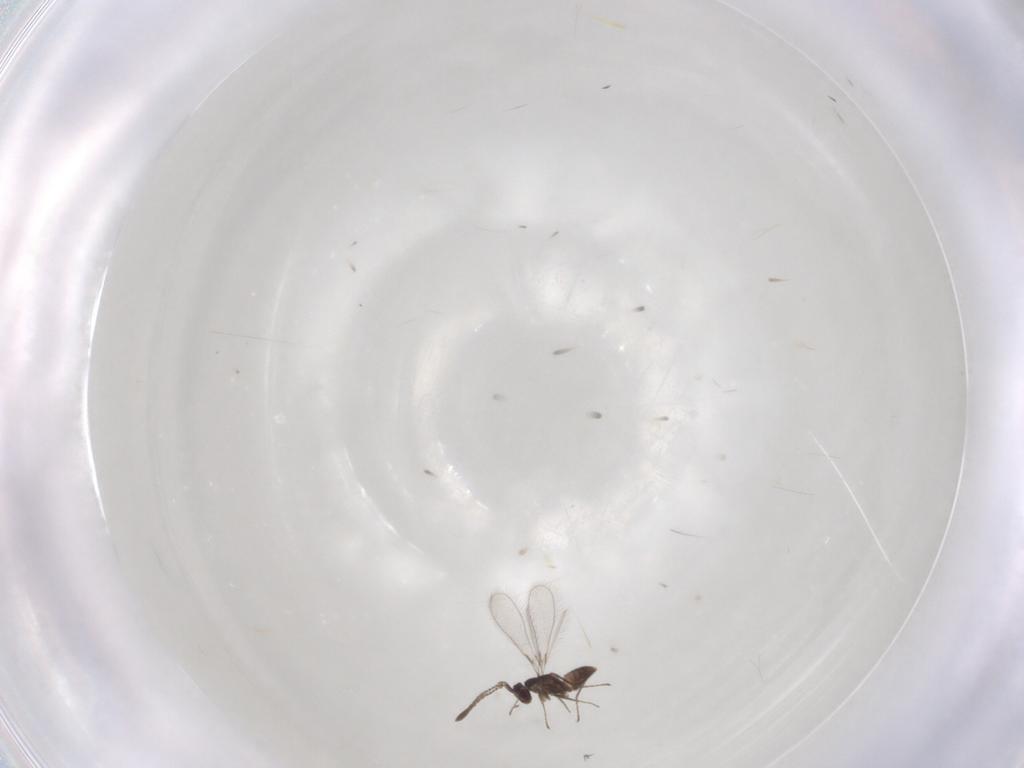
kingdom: Animalia
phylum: Arthropoda
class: Insecta
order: Hymenoptera
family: Mymaridae
